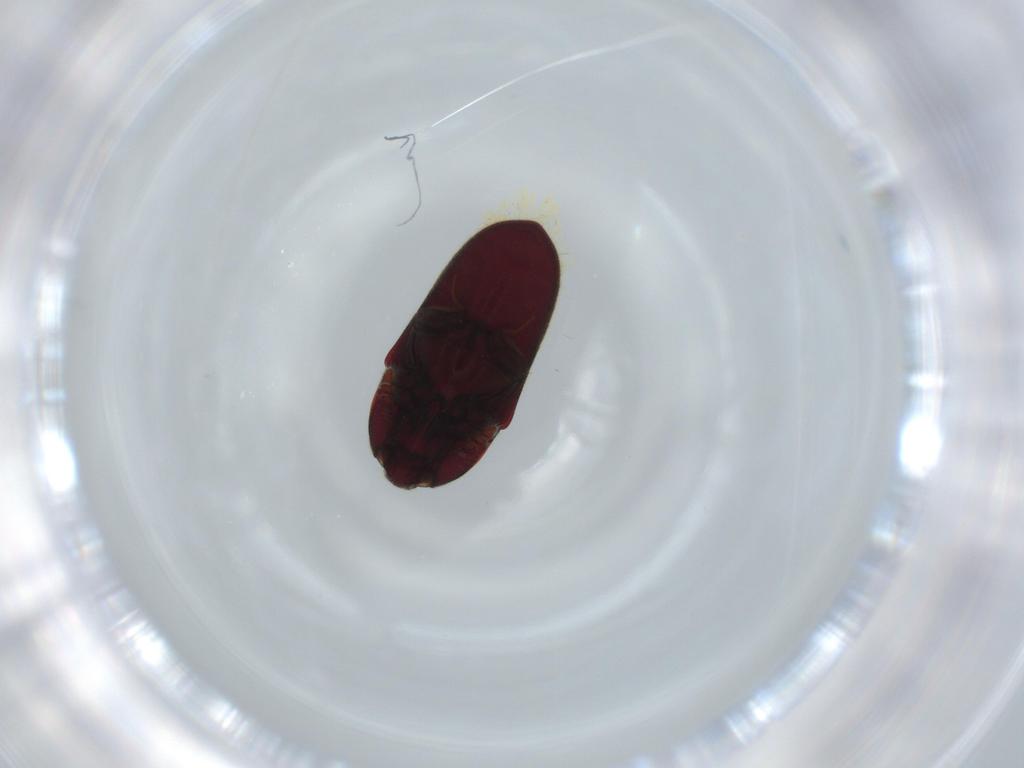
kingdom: Animalia
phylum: Arthropoda
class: Insecta
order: Coleoptera
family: Throscidae
